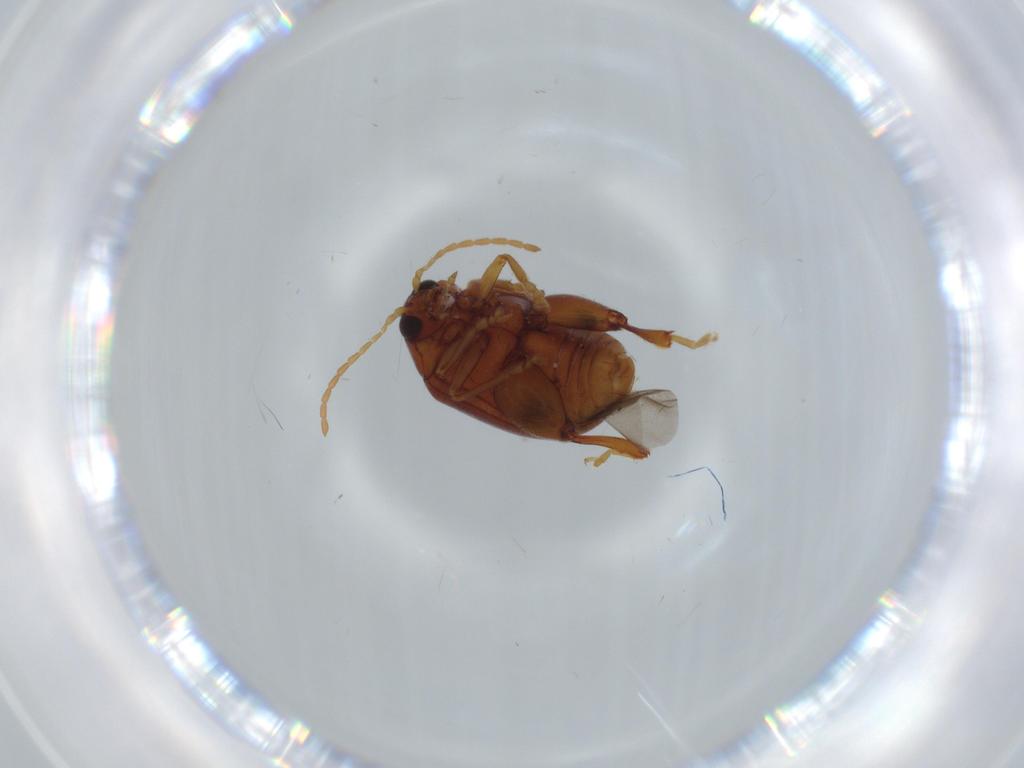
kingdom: Animalia
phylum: Arthropoda
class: Insecta
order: Coleoptera
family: Chrysomelidae
